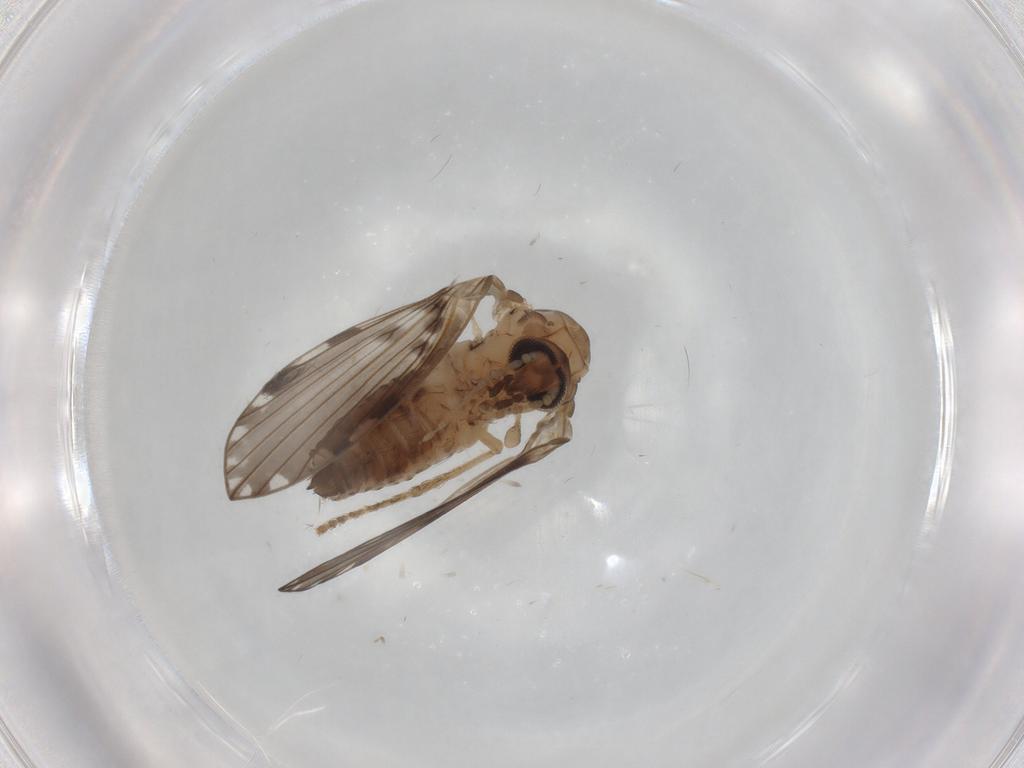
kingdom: Animalia
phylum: Arthropoda
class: Insecta
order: Diptera
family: Psychodidae
